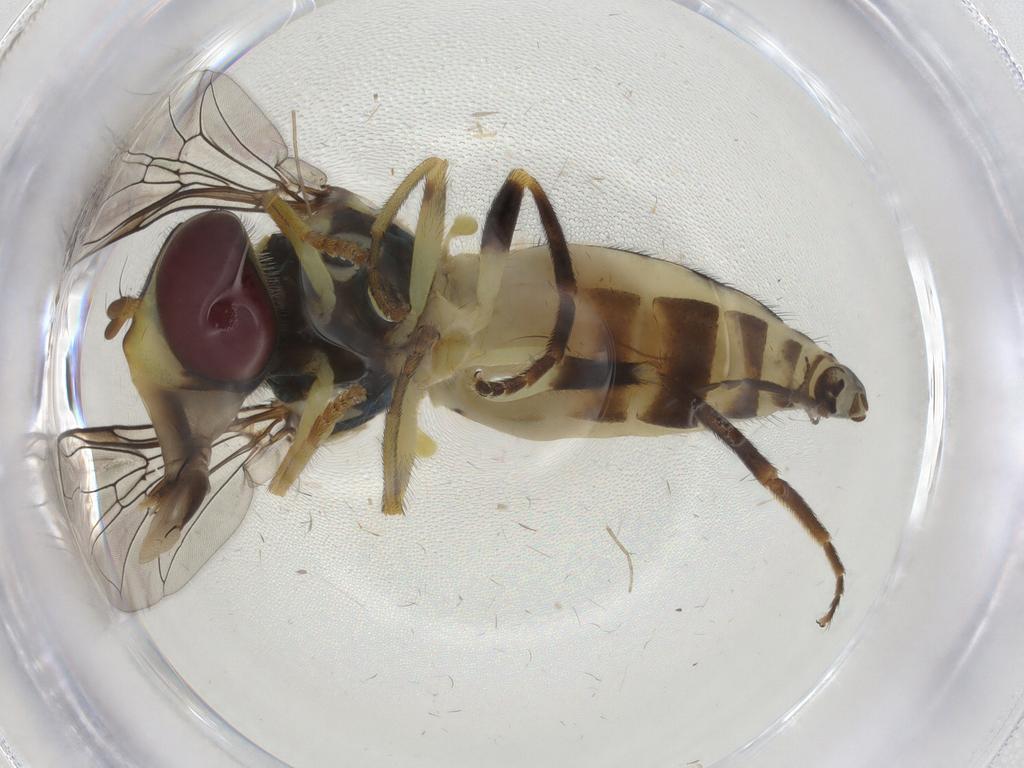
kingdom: Animalia
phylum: Arthropoda
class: Insecta
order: Diptera
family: Syrphidae
